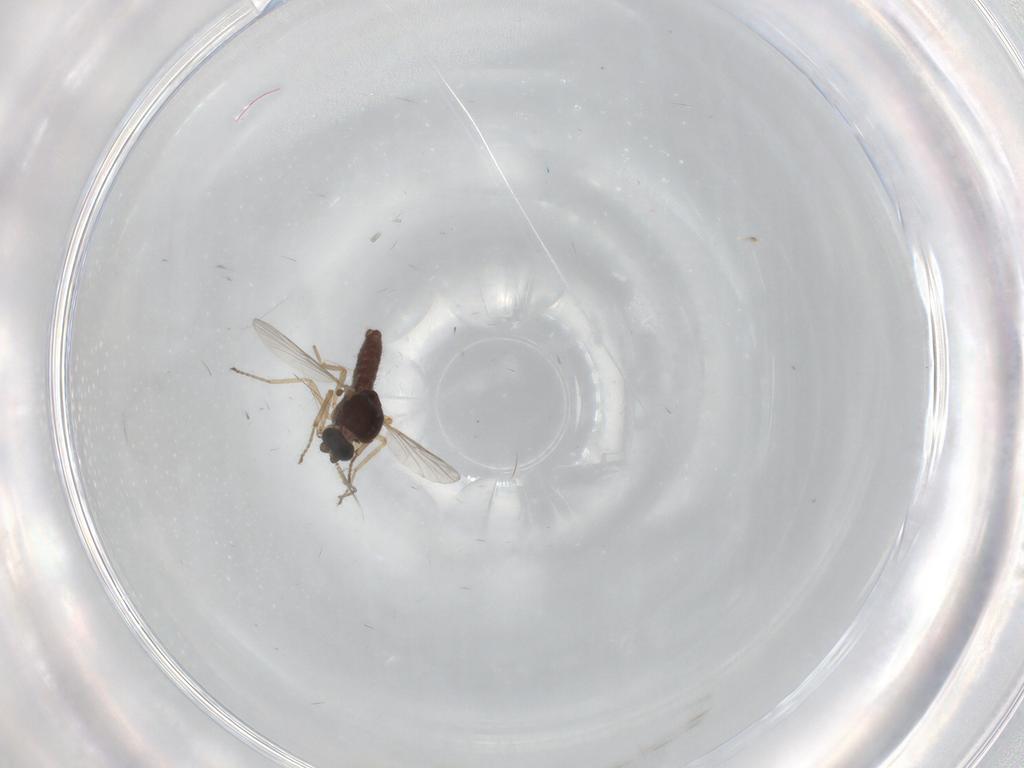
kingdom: Animalia
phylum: Arthropoda
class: Insecta
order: Diptera
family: Ceratopogonidae
